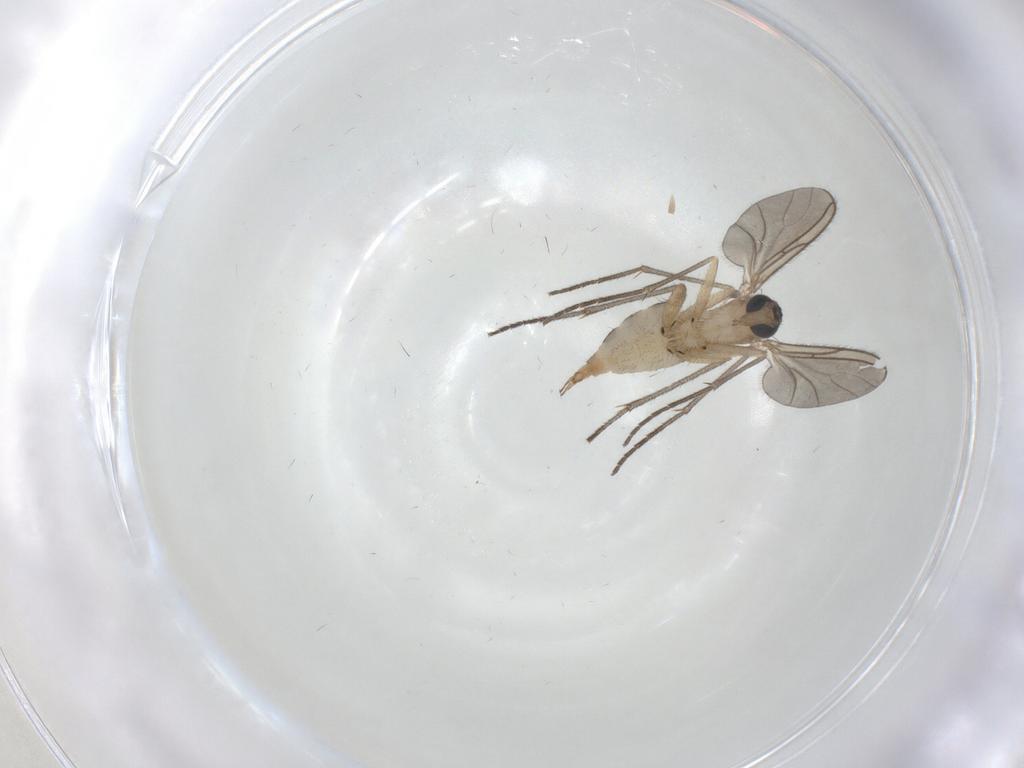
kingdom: Animalia
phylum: Arthropoda
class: Insecta
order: Diptera
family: Sciaridae
